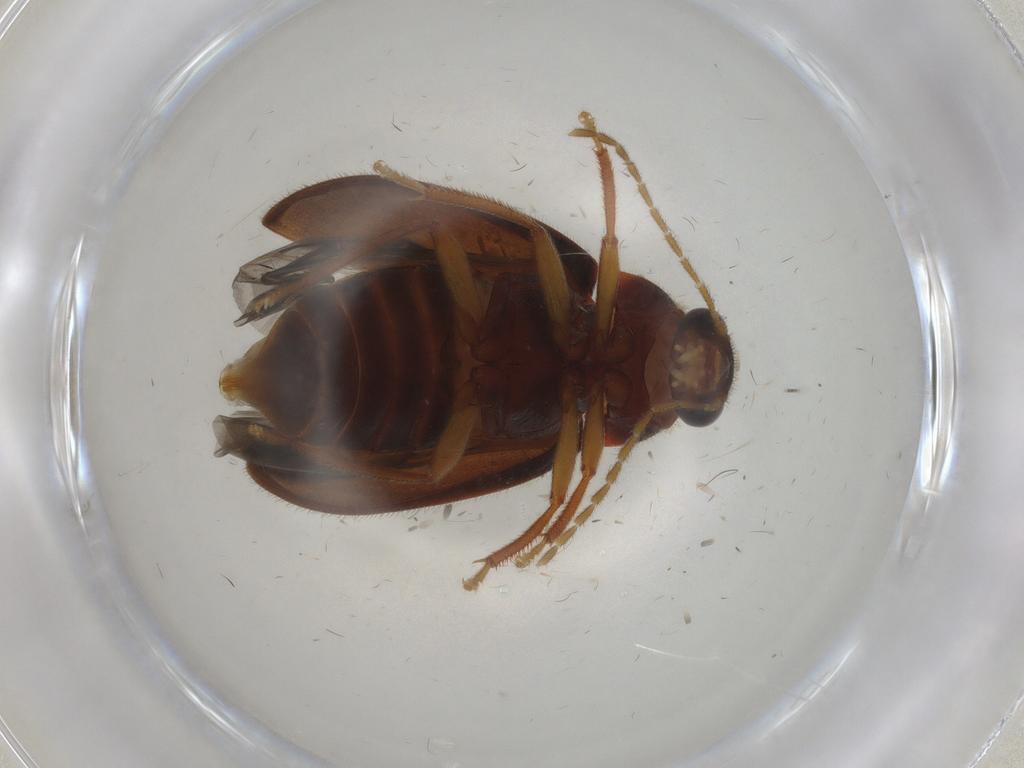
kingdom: Animalia
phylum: Arthropoda
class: Insecta
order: Coleoptera
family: Ptilodactylidae
